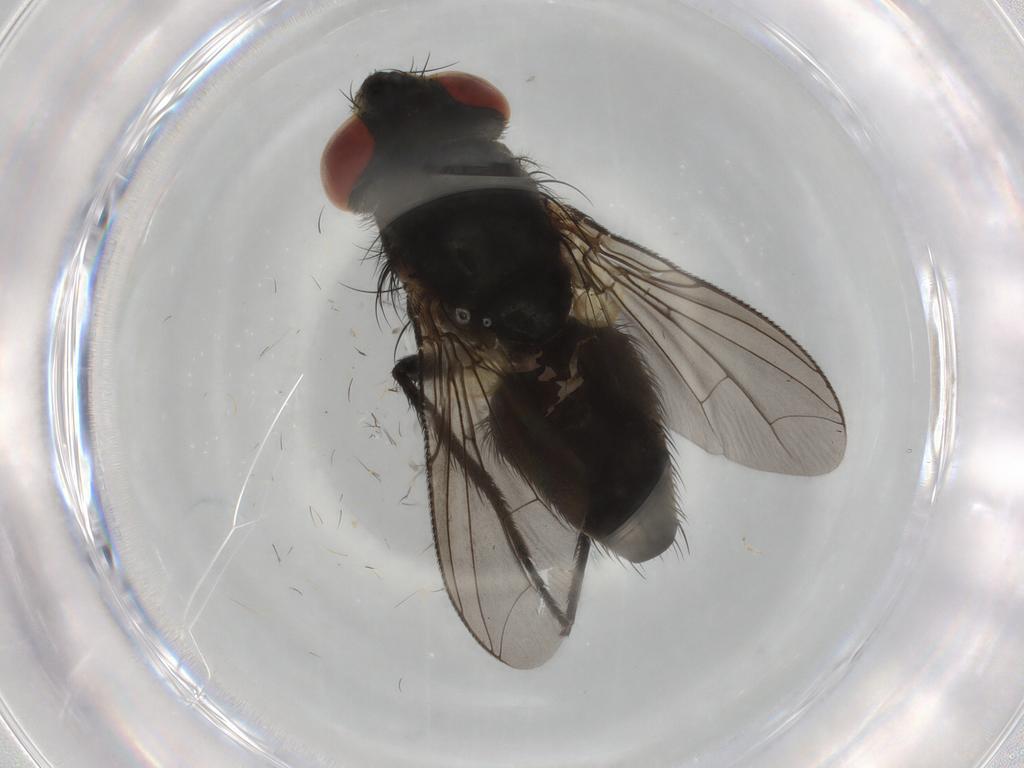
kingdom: Animalia
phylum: Arthropoda
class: Insecta
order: Diptera
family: Sarcophagidae
